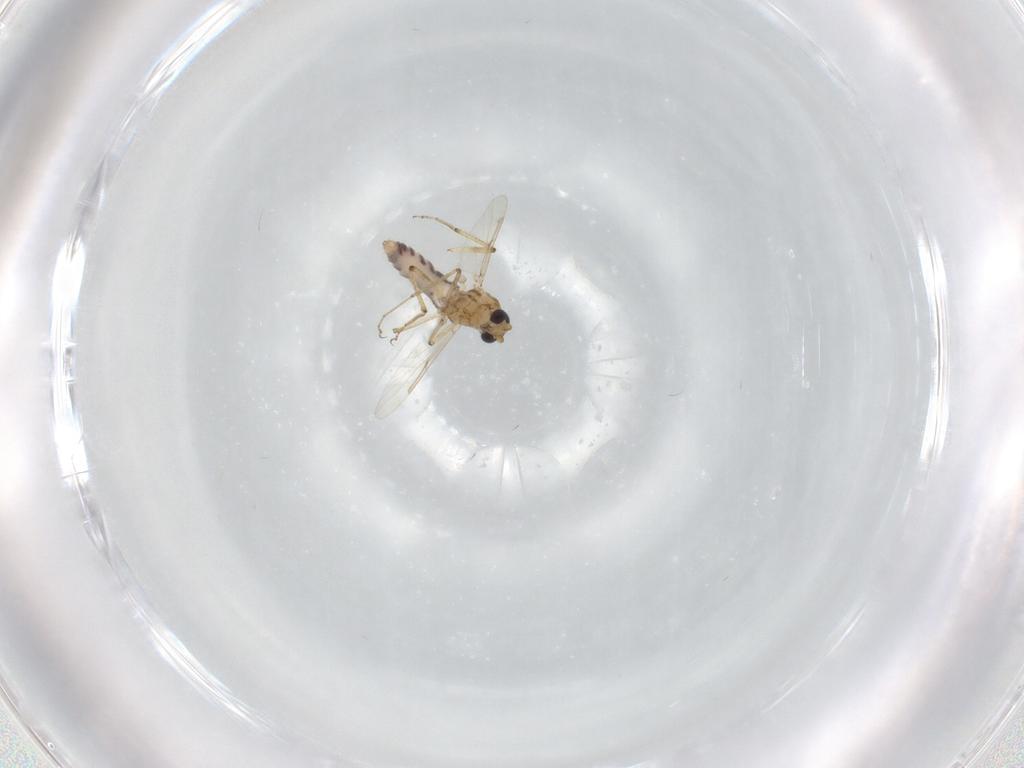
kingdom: Animalia
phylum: Arthropoda
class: Insecta
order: Diptera
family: Ceratopogonidae
